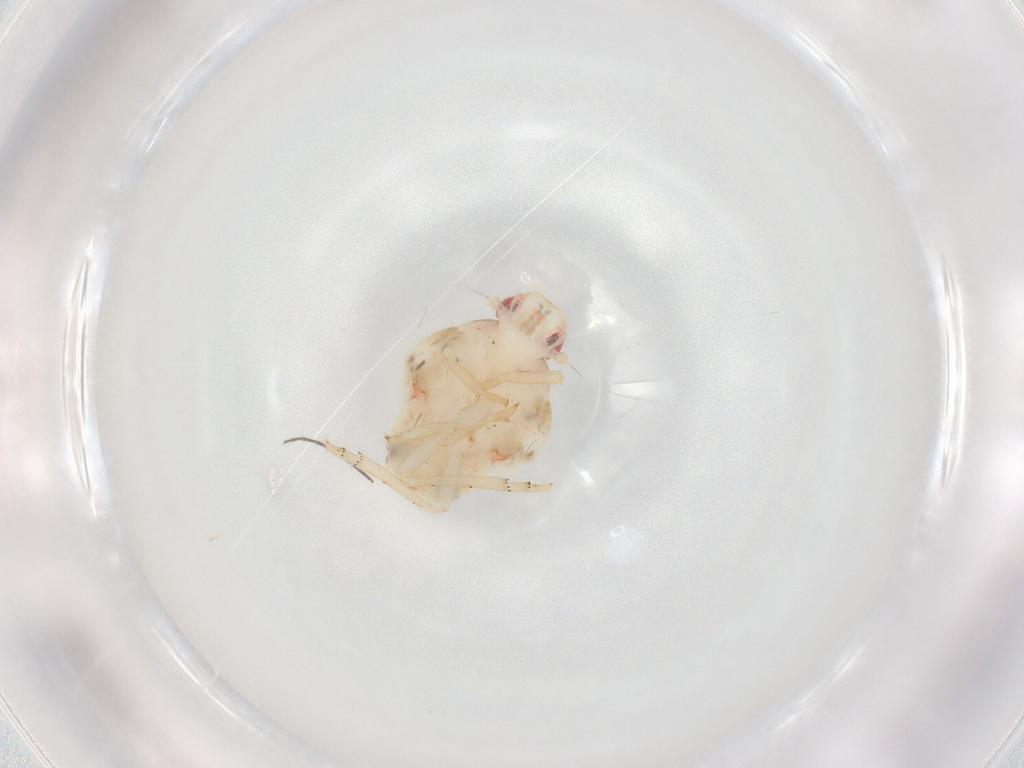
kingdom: Animalia
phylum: Arthropoda
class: Insecta
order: Hemiptera
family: Flatidae
